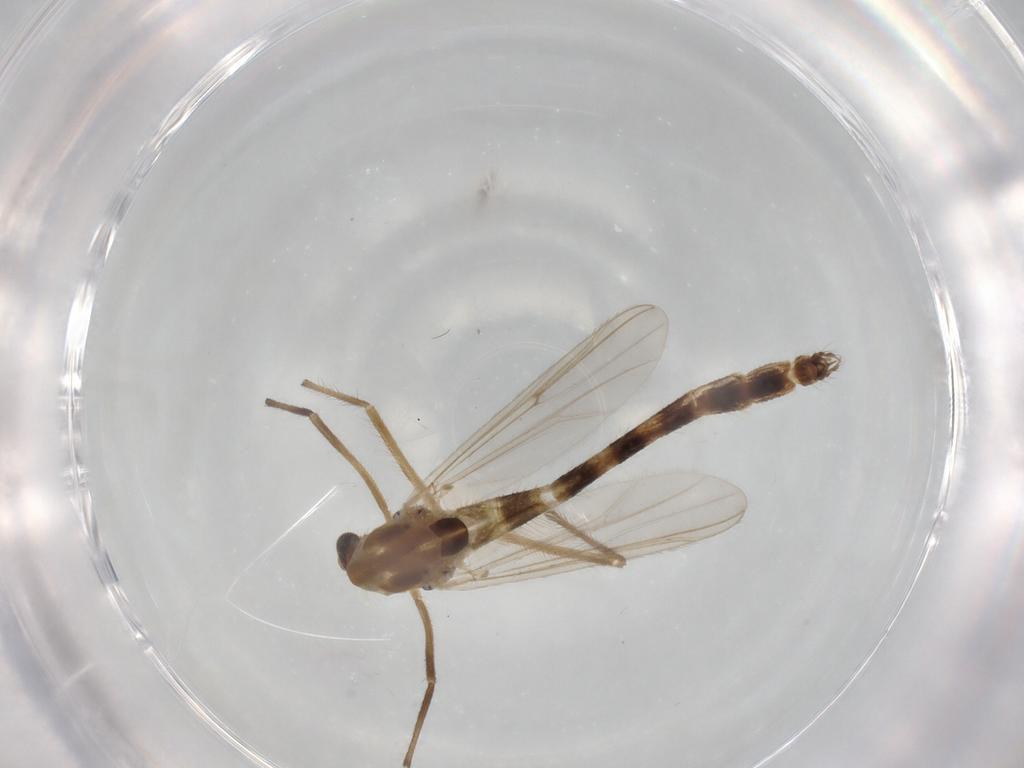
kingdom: Animalia
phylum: Arthropoda
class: Insecta
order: Diptera
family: Chironomidae
